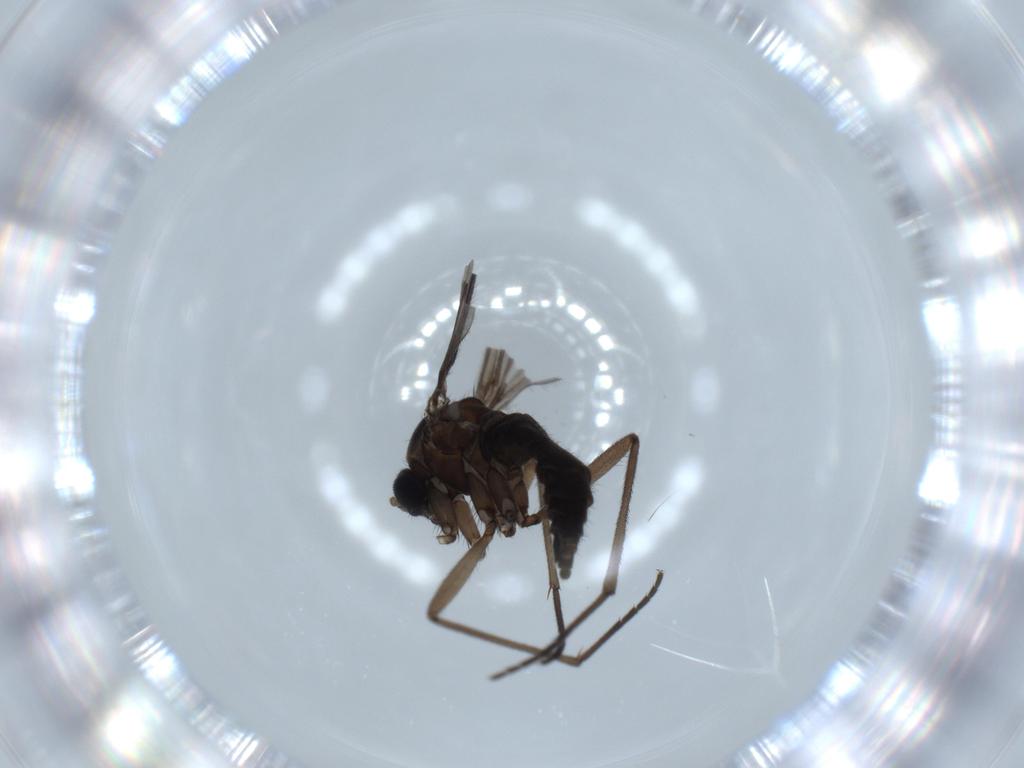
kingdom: Animalia
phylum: Arthropoda
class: Insecta
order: Diptera
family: Sciaridae
